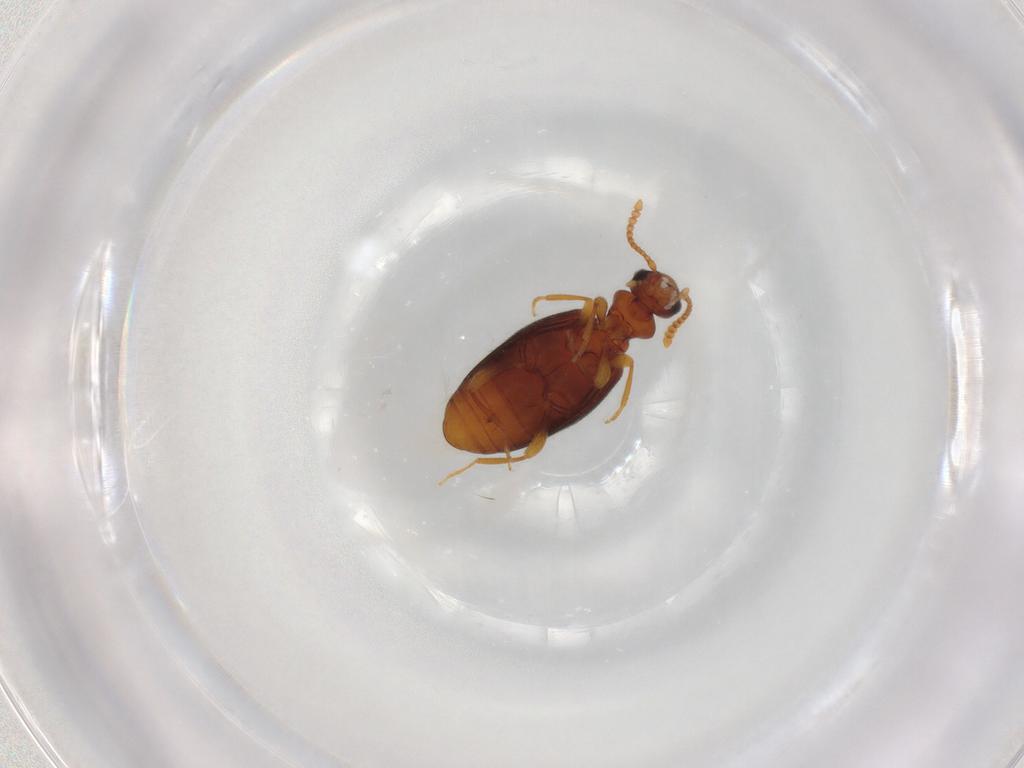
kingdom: Animalia
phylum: Arthropoda
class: Insecta
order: Coleoptera
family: Anthicidae
